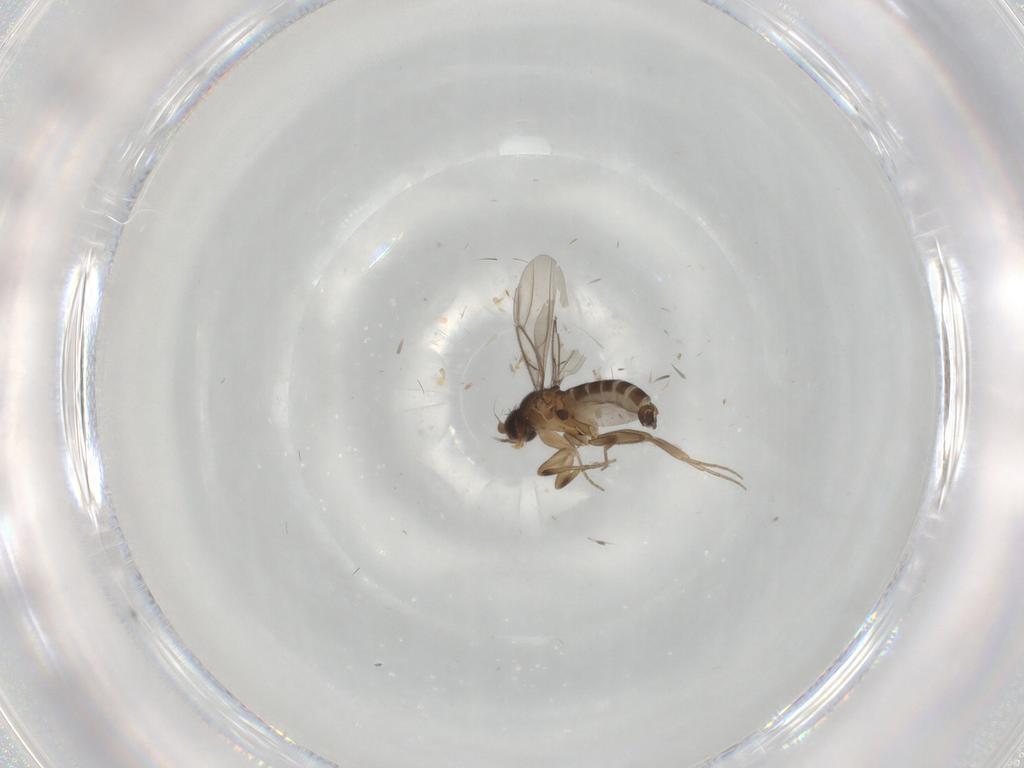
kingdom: Animalia
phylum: Arthropoda
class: Insecta
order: Diptera
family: Phoridae
